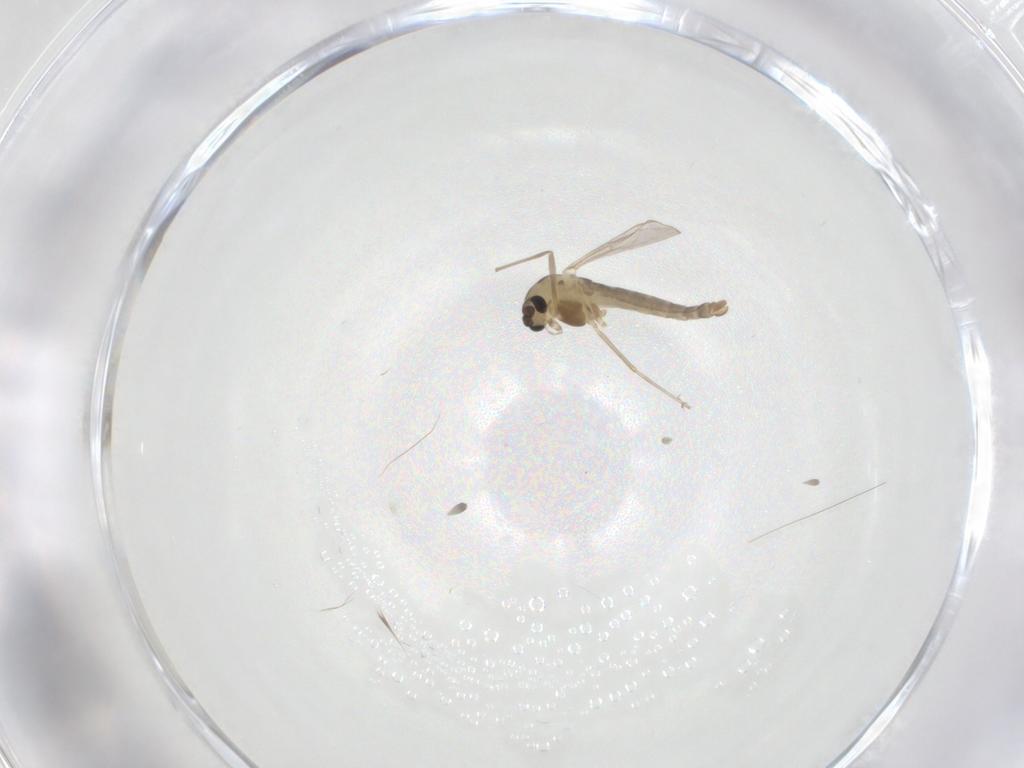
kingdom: Animalia
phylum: Arthropoda
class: Insecta
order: Diptera
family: Chironomidae
